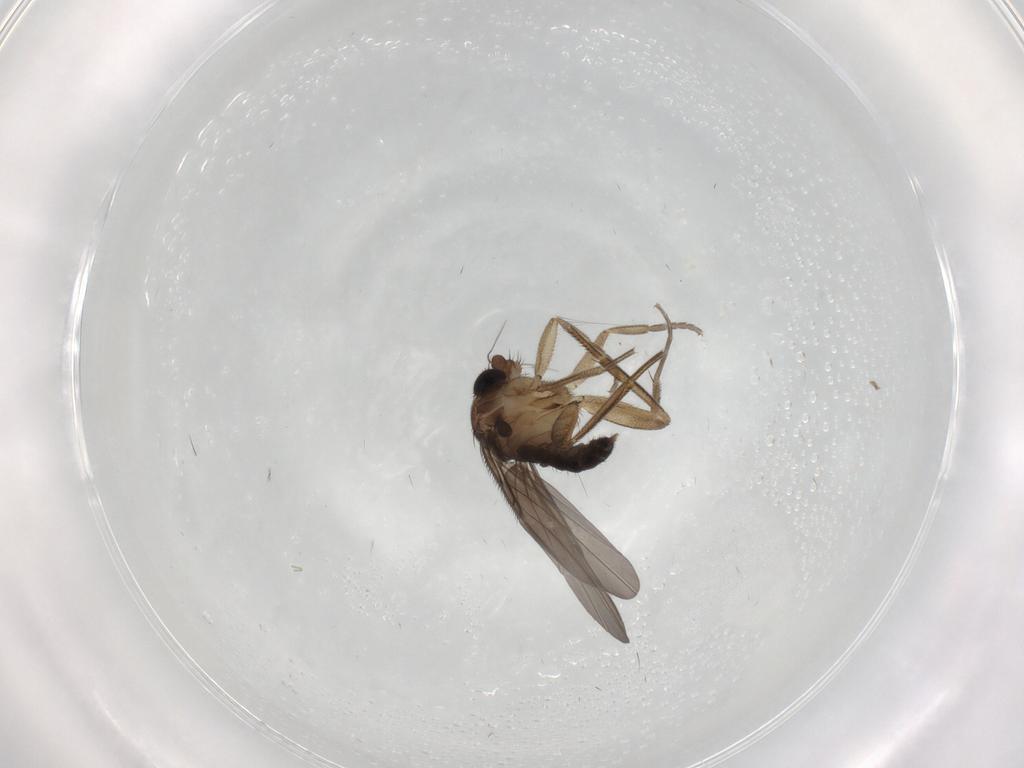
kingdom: Animalia
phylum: Arthropoda
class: Insecta
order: Diptera
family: Phoridae
